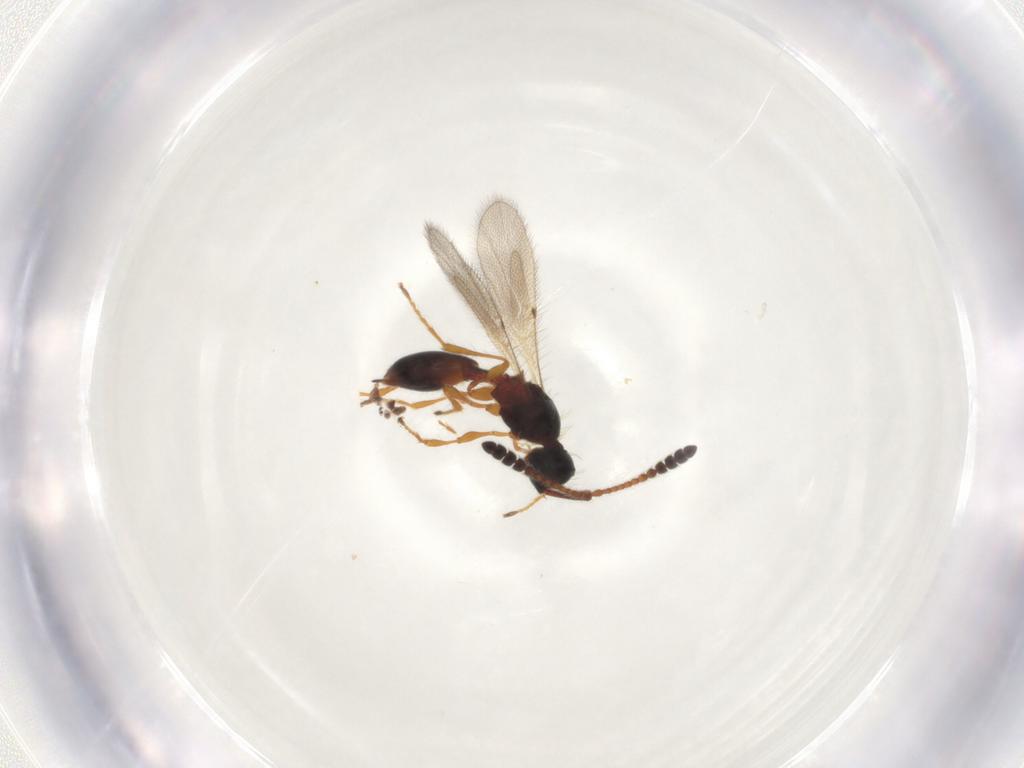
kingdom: Animalia
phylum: Arthropoda
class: Insecta
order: Hymenoptera
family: Diapriidae
